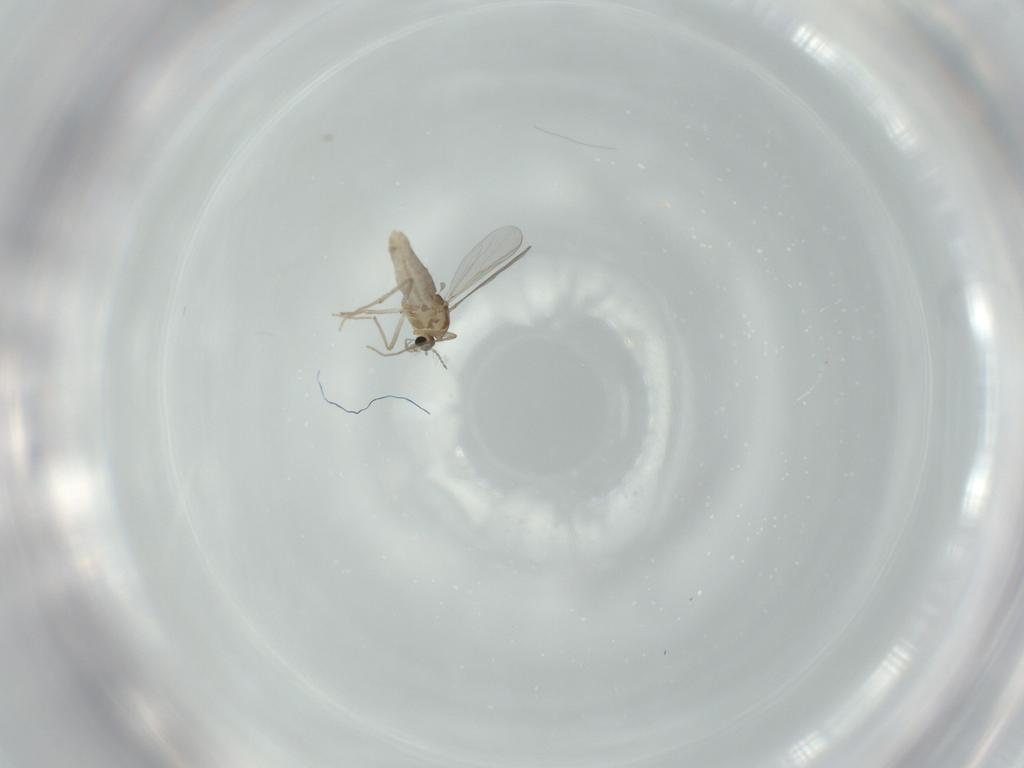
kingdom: Animalia
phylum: Arthropoda
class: Insecta
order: Diptera
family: Chironomidae
